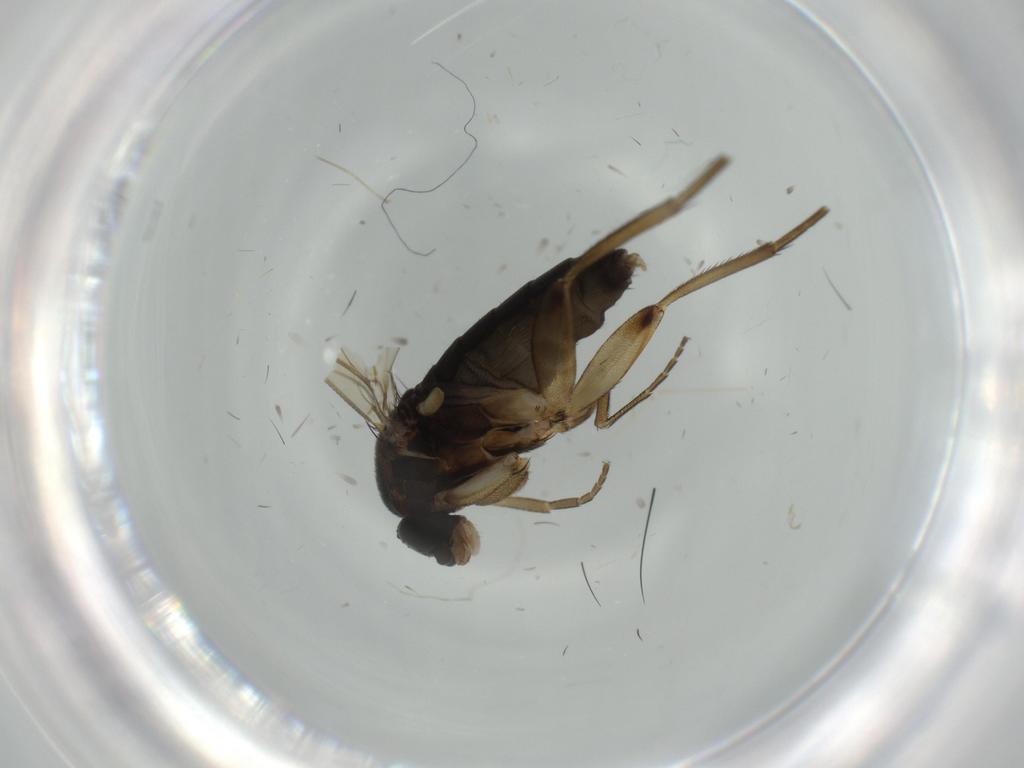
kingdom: Animalia
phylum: Arthropoda
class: Insecta
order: Diptera
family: Phoridae
